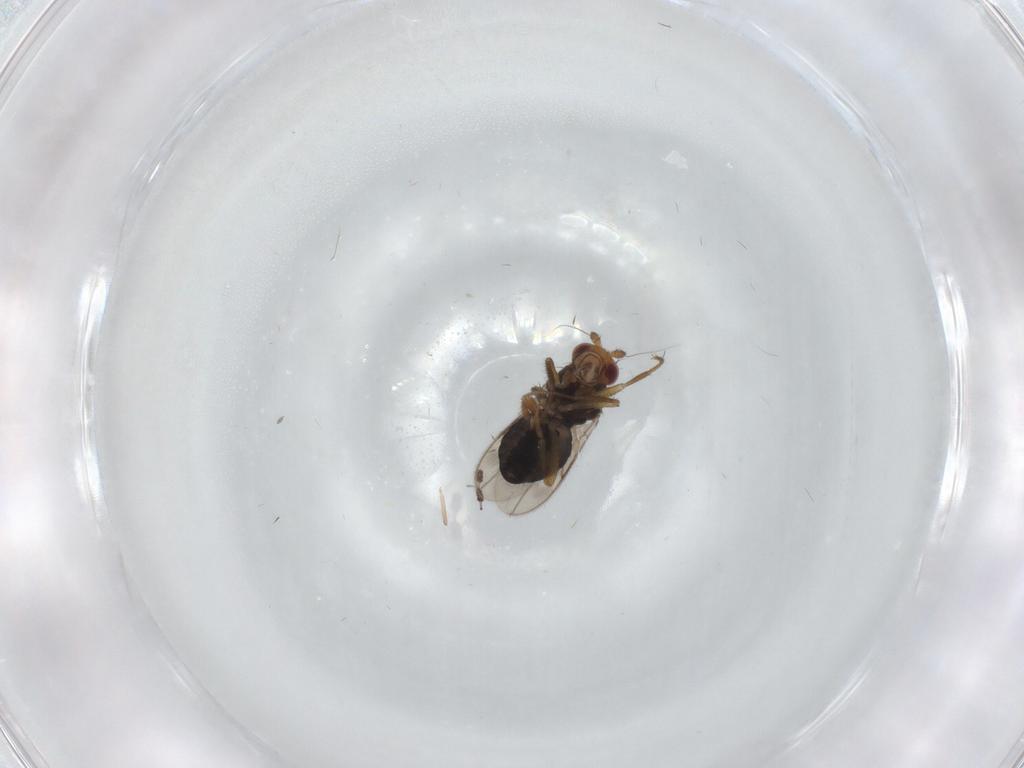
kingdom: Animalia
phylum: Arthropoda
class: Insecta
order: Diptera
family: Sphaeroceridae
